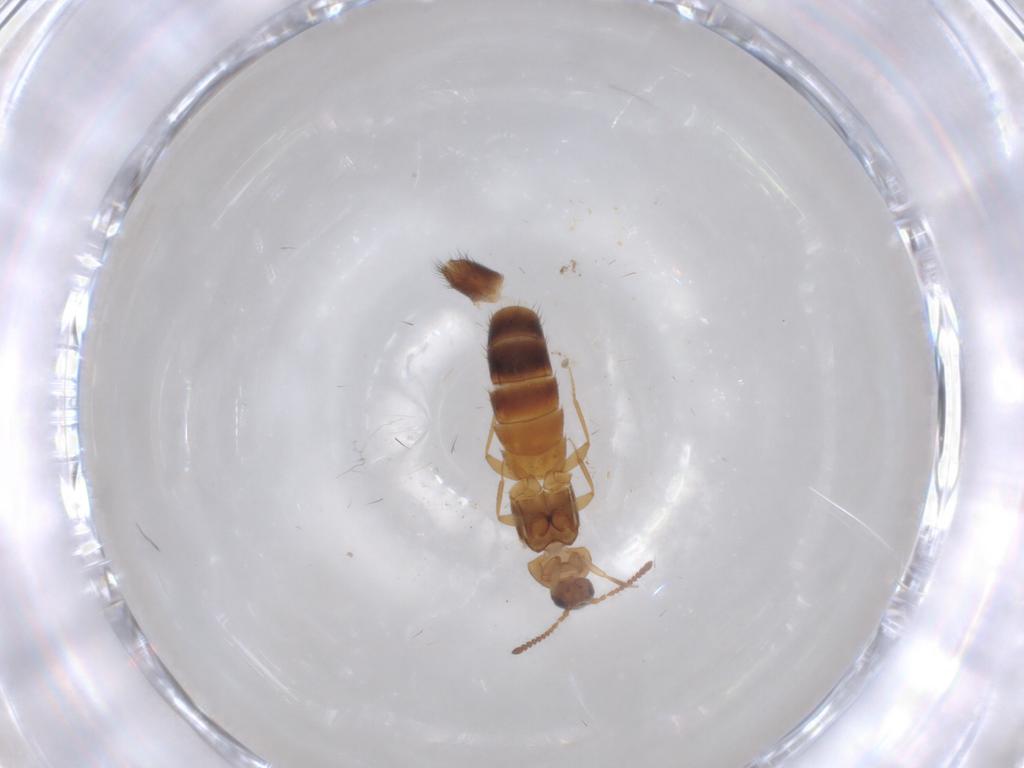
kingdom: Animalia
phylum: Arthropoda
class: Insecta
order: Coleoptera
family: Staphylinidae
